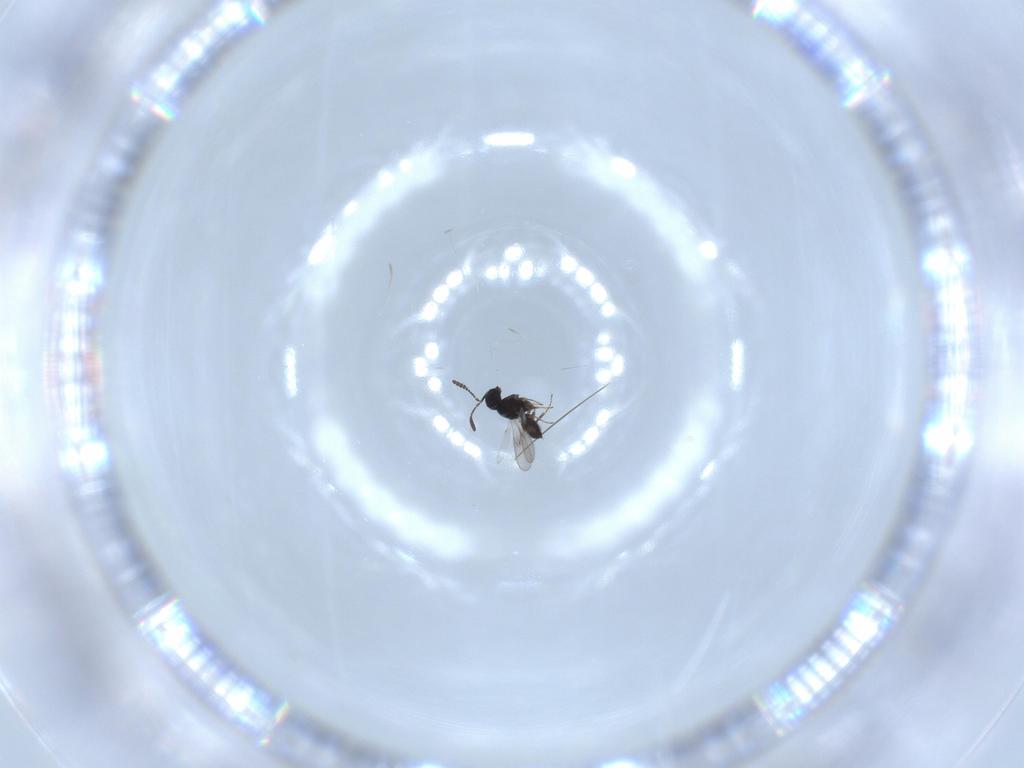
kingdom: Animalia
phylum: Arthropoda
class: Insecta
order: Hymenoptera
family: Scelionidae
